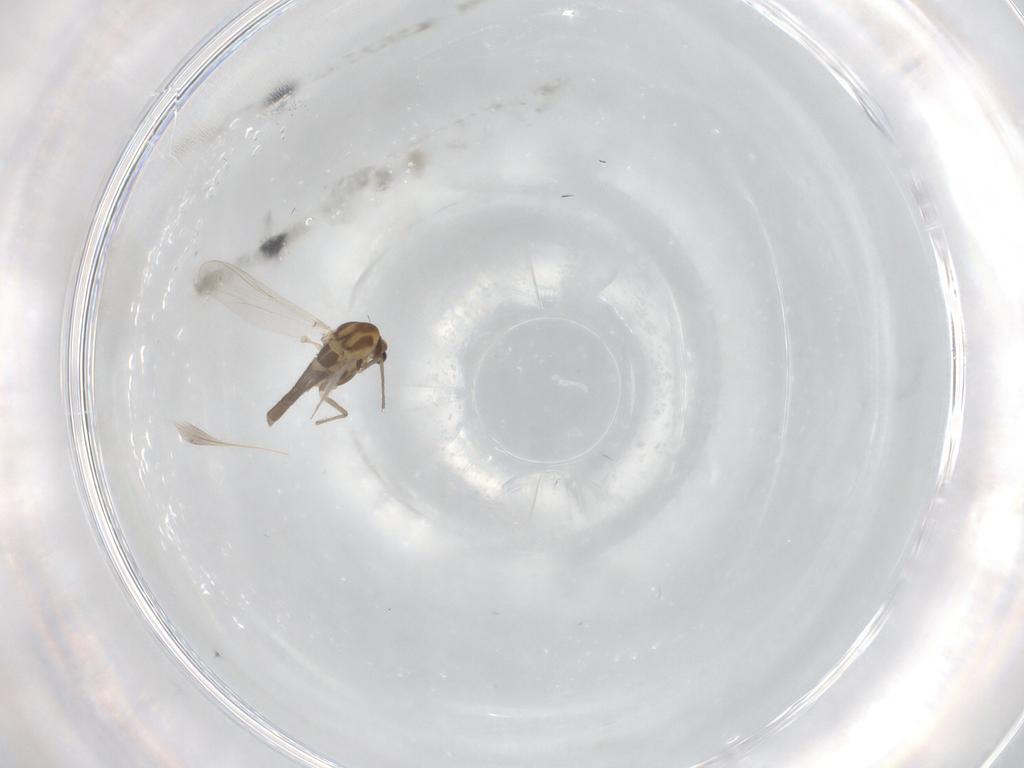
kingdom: Animalia
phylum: Arthropoda
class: Insecta
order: Diptera
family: Chironomidae
